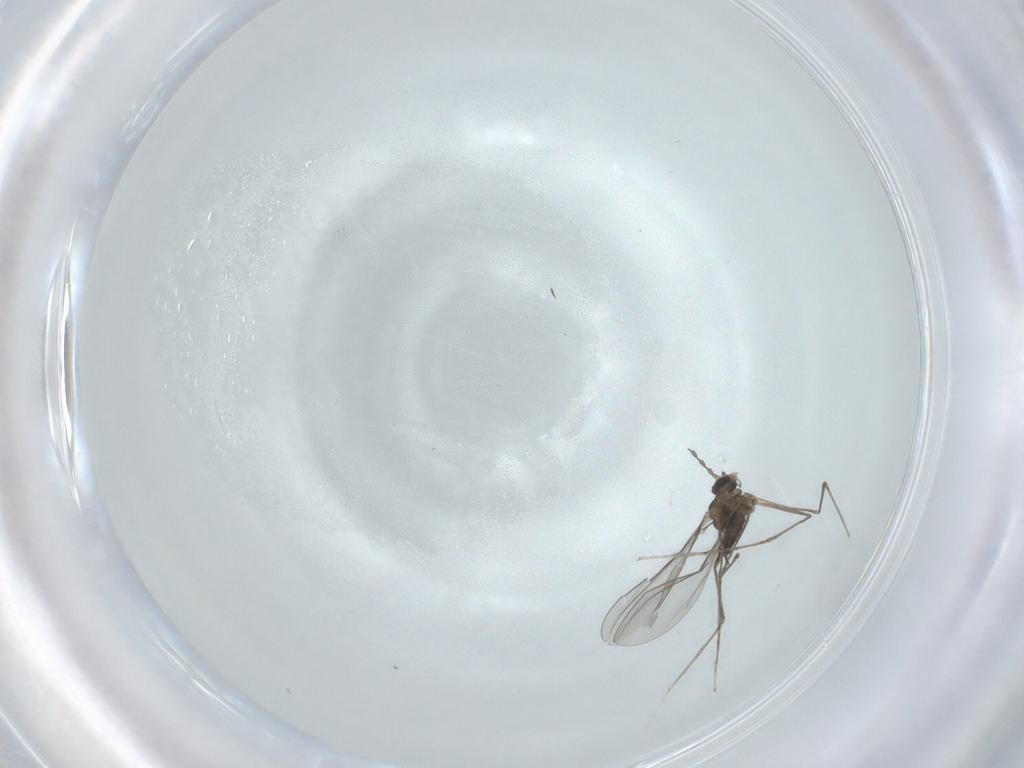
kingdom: Animalia
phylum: Arthropoda
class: Insecta
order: Diptera
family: Cecidomyiidae
